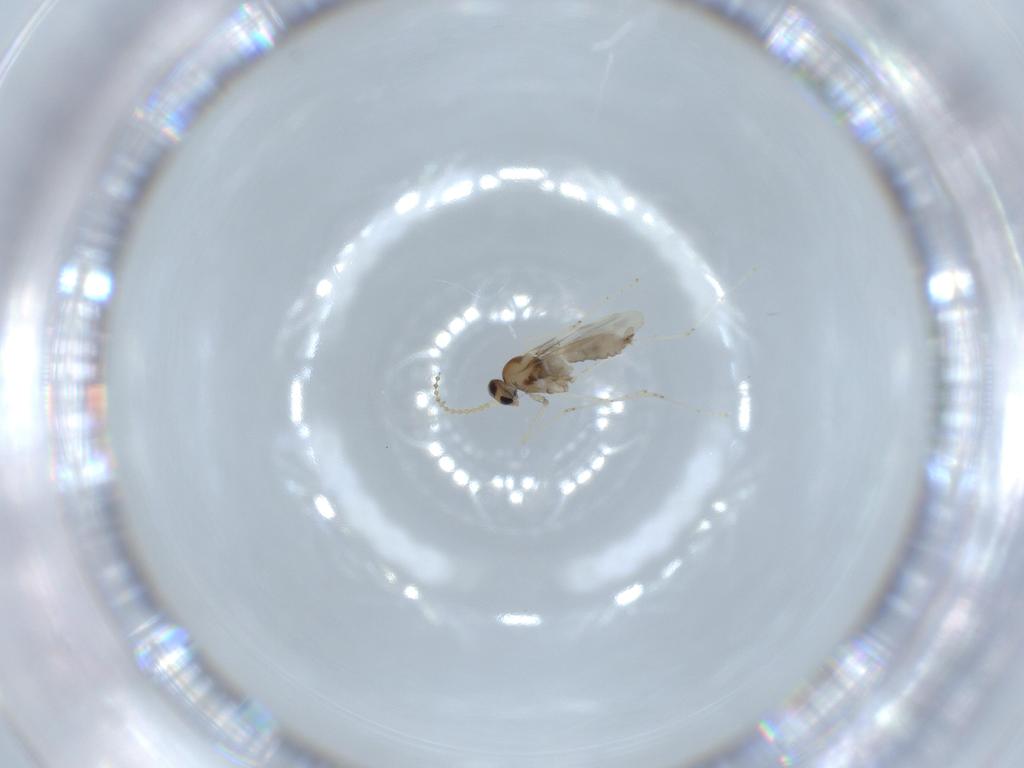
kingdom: Animalia
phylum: Arthropoda
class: Insecta
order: Diptera
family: Cecidomyiidae
